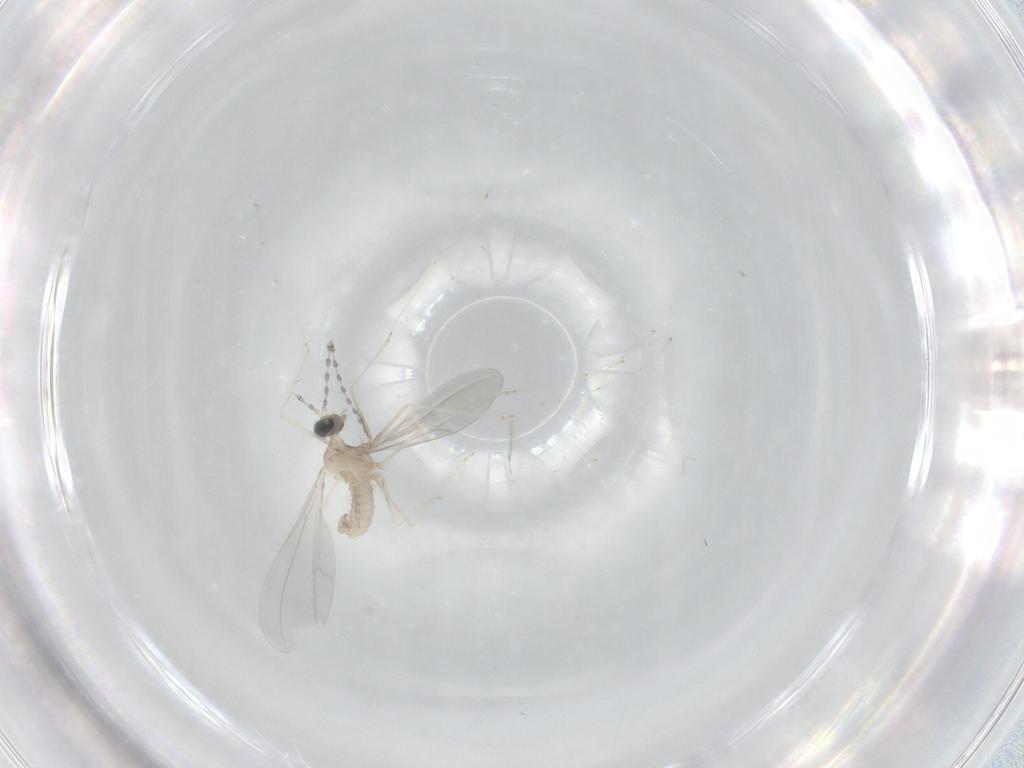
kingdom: Animalia
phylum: Arthropoda
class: Insecta
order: Diptera
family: Cecidomyiidae
